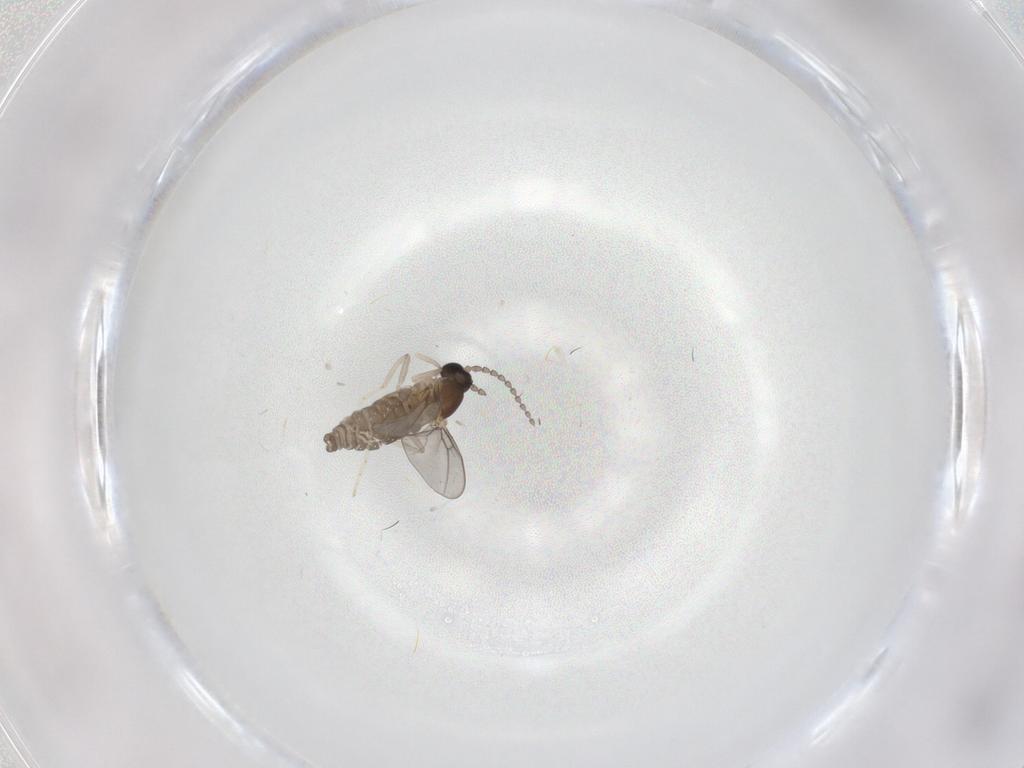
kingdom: Animalia
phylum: Arthropoda
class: Insecta
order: Diptera
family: Cecidomyiidae
